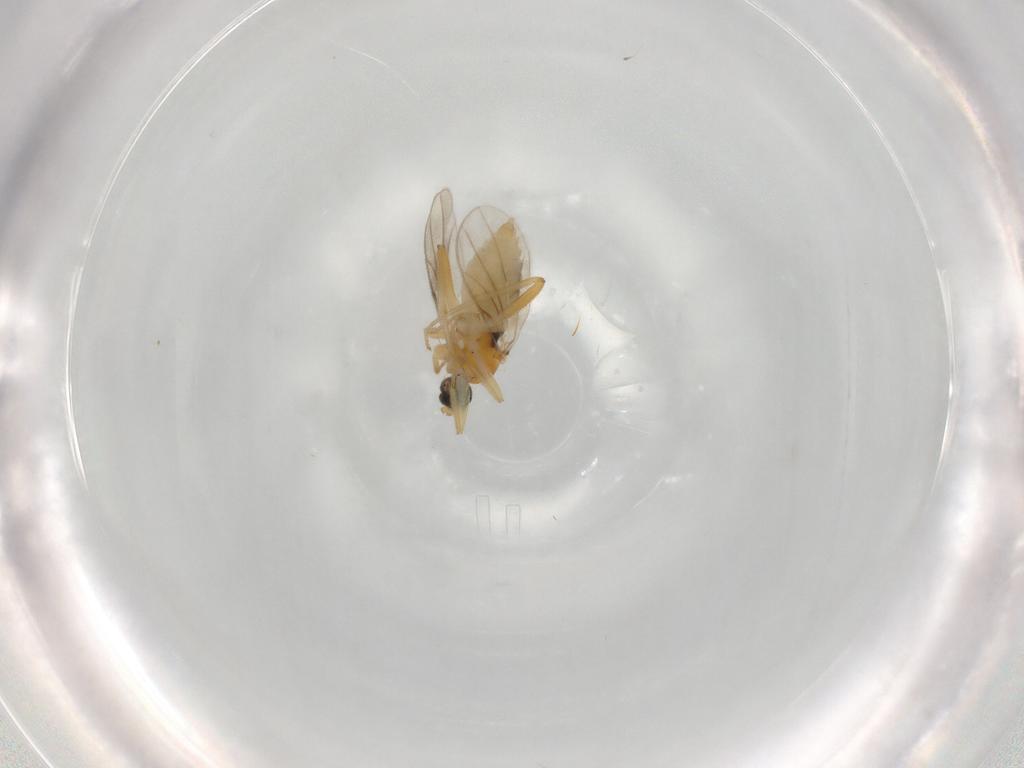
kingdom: Animalia
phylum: Arthropoda
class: Insecta
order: Diptera
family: Hybotidae
